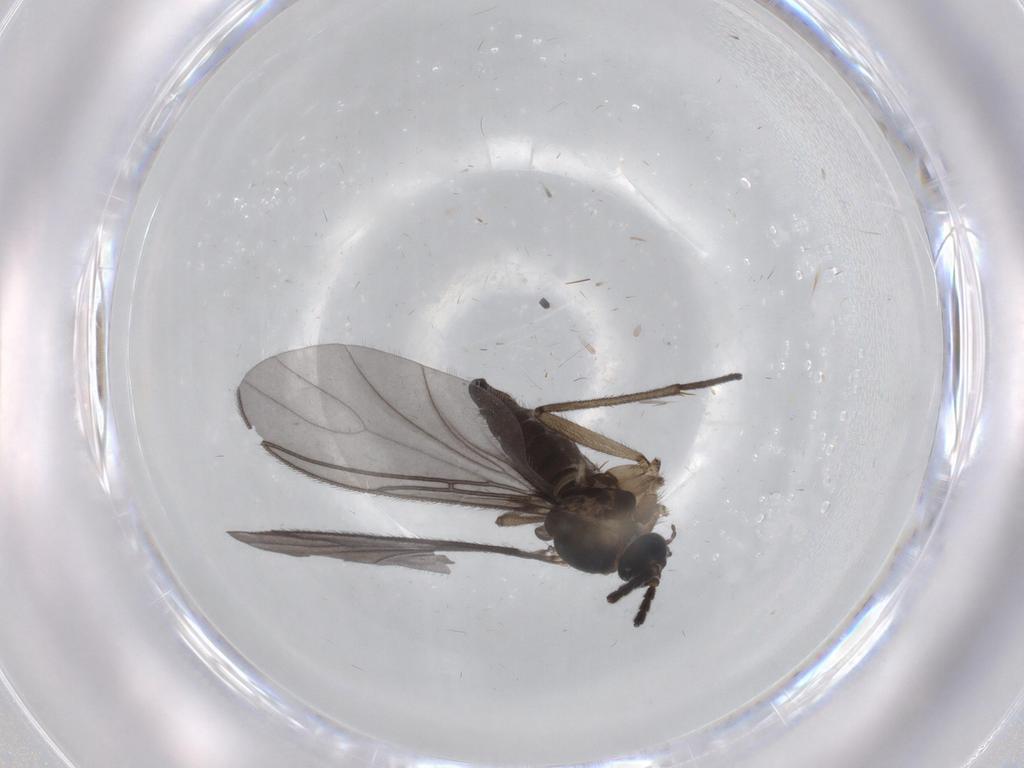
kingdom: Animalia
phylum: Arthropoda
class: Insecta
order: Diptera
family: Sciaridae
